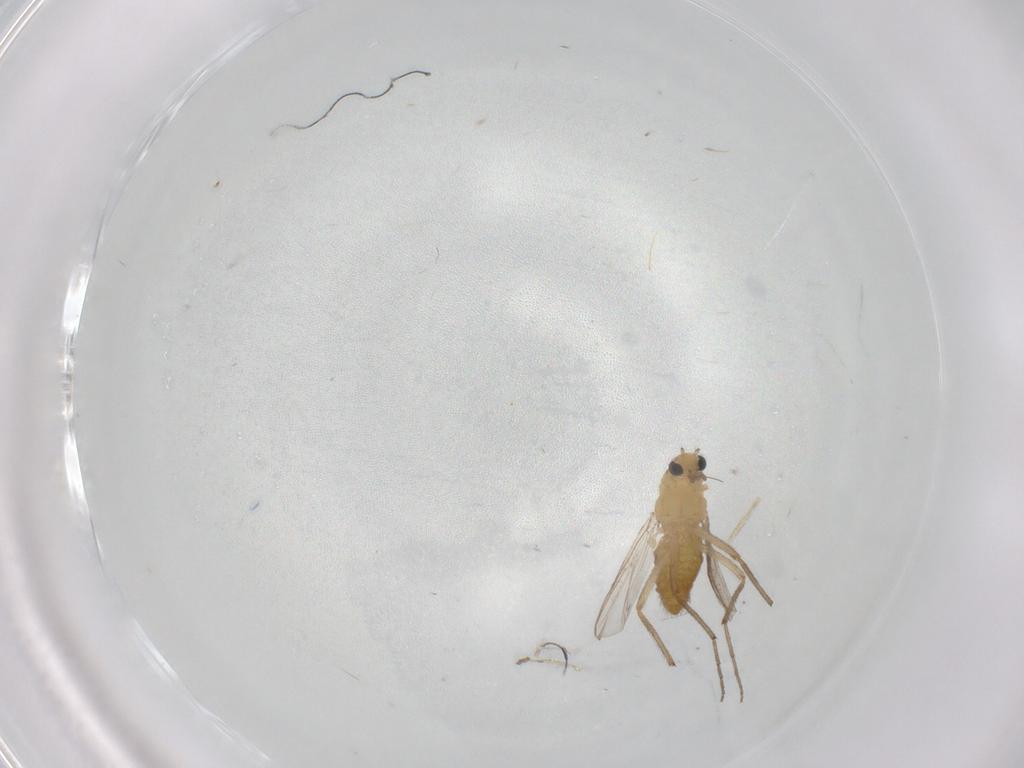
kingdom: Animalia
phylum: Arthropoda
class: Insecta
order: Diptera
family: Chironomidae
